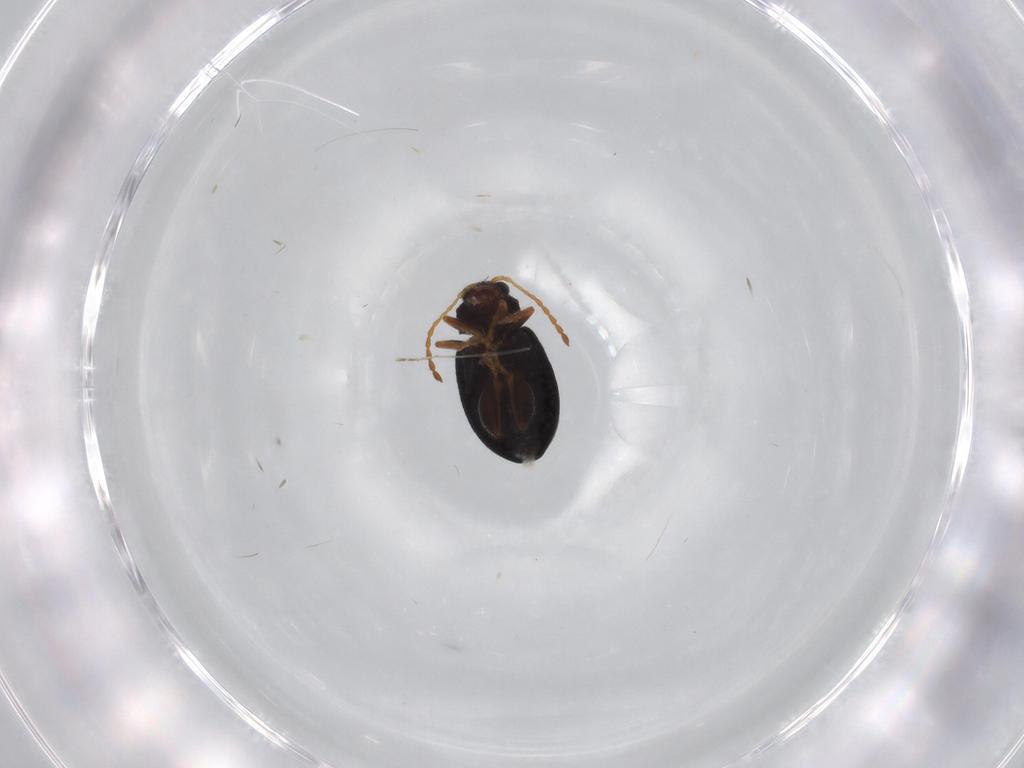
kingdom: Animalia
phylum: Arthropoda
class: Insecta
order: Coleoptera
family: Chrysomelidae
